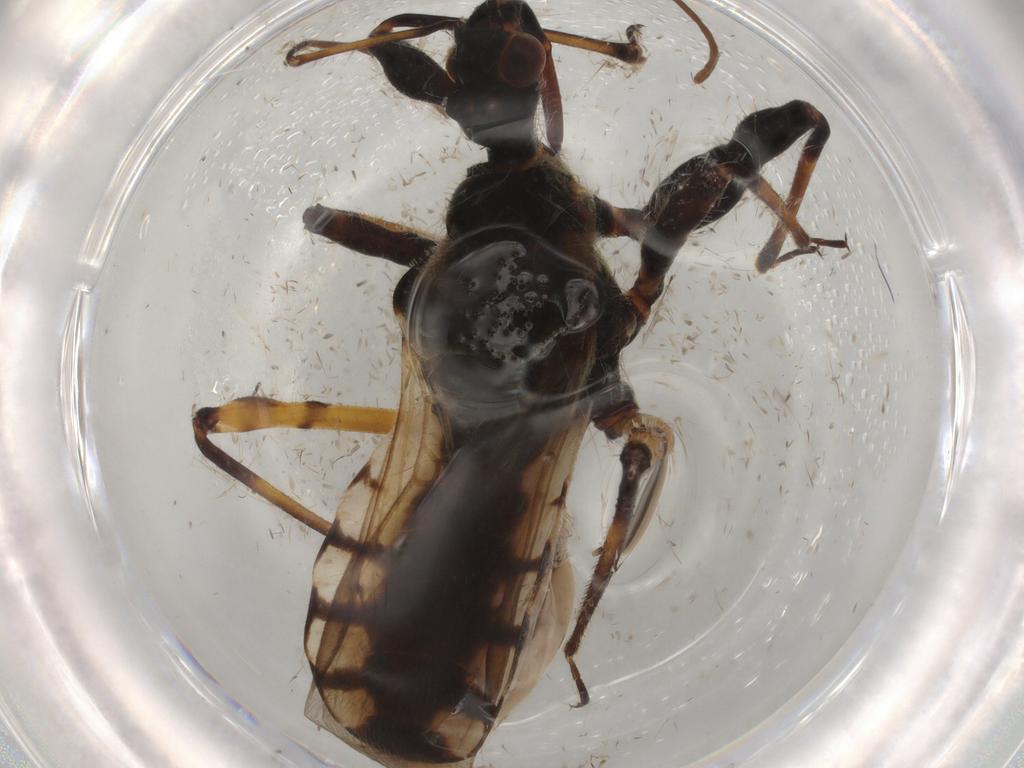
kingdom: Animalia
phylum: Arthropoda
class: Insecta
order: Hemiptera
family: Reduviidae
